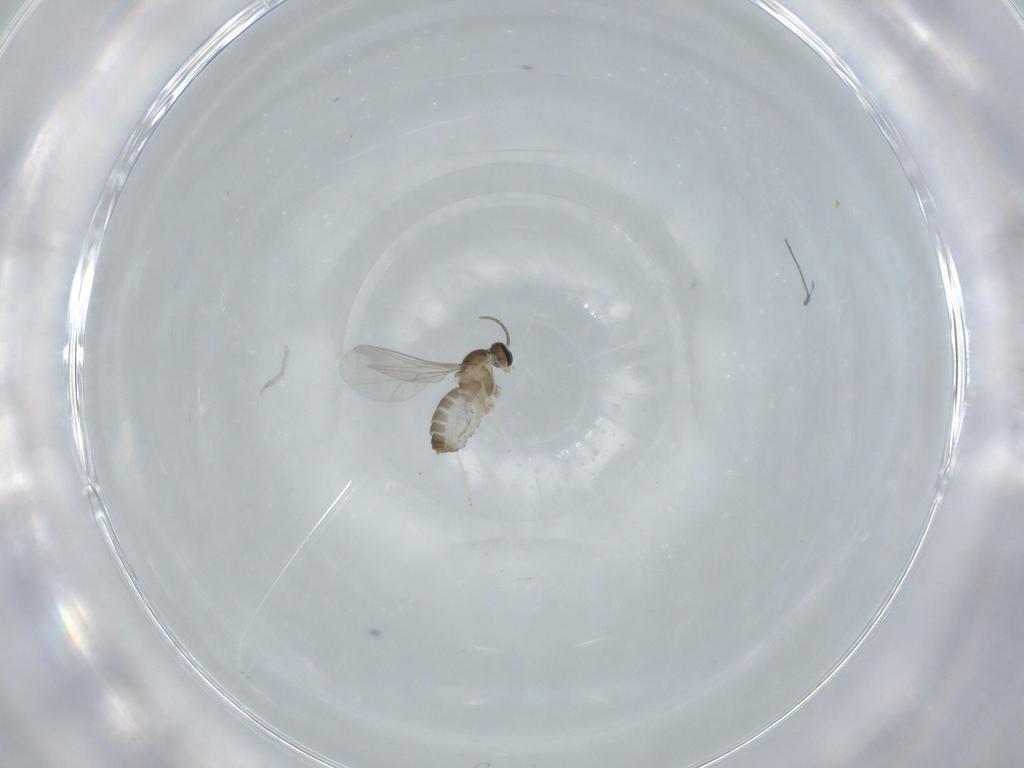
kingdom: Animalia
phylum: Arthropoda
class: Insecta
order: Diptera
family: Cecidomyiidae
